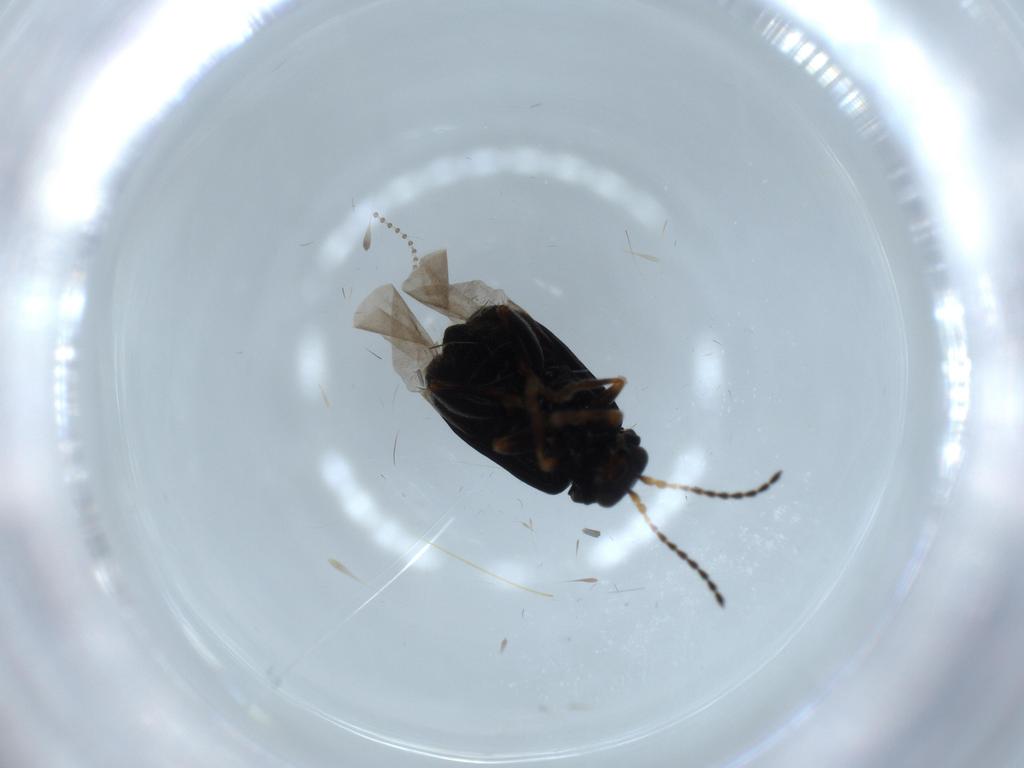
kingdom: Animalia
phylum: Arthropoda
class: Insecta
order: Coleoptera
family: Chrysomelidae
